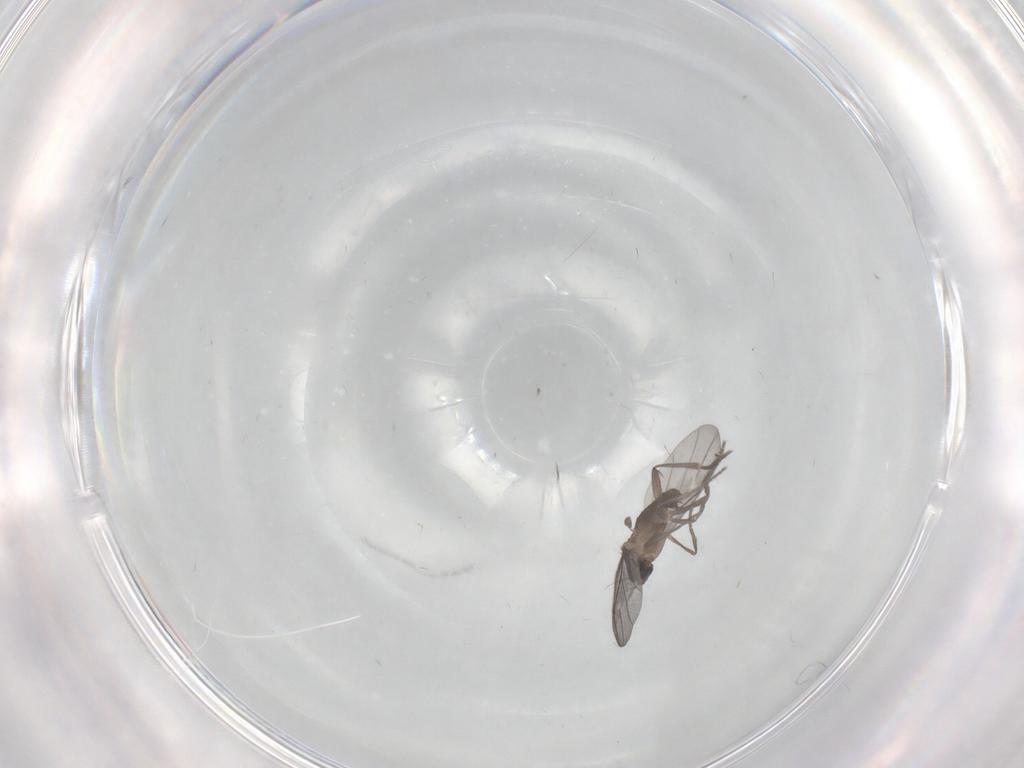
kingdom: Animalia
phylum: Arthropoda
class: Insecta
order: Diptera
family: Phoridae
